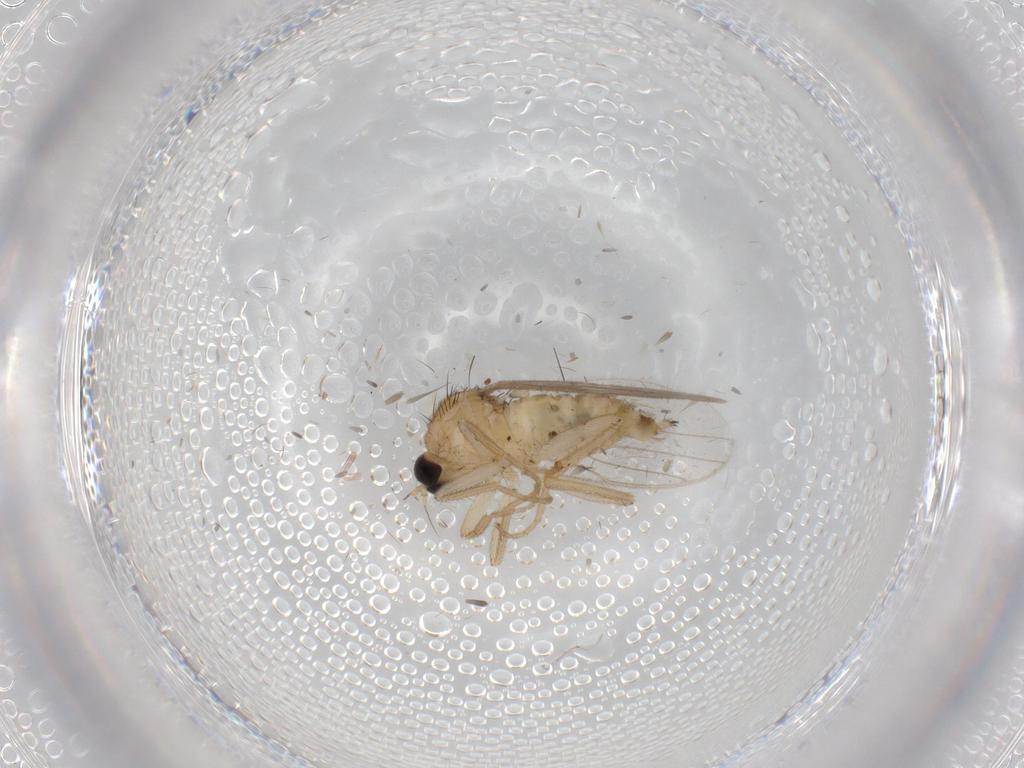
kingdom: Animalia
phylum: Arthropoda
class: Insecta
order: Diptera
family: Hybotidae
